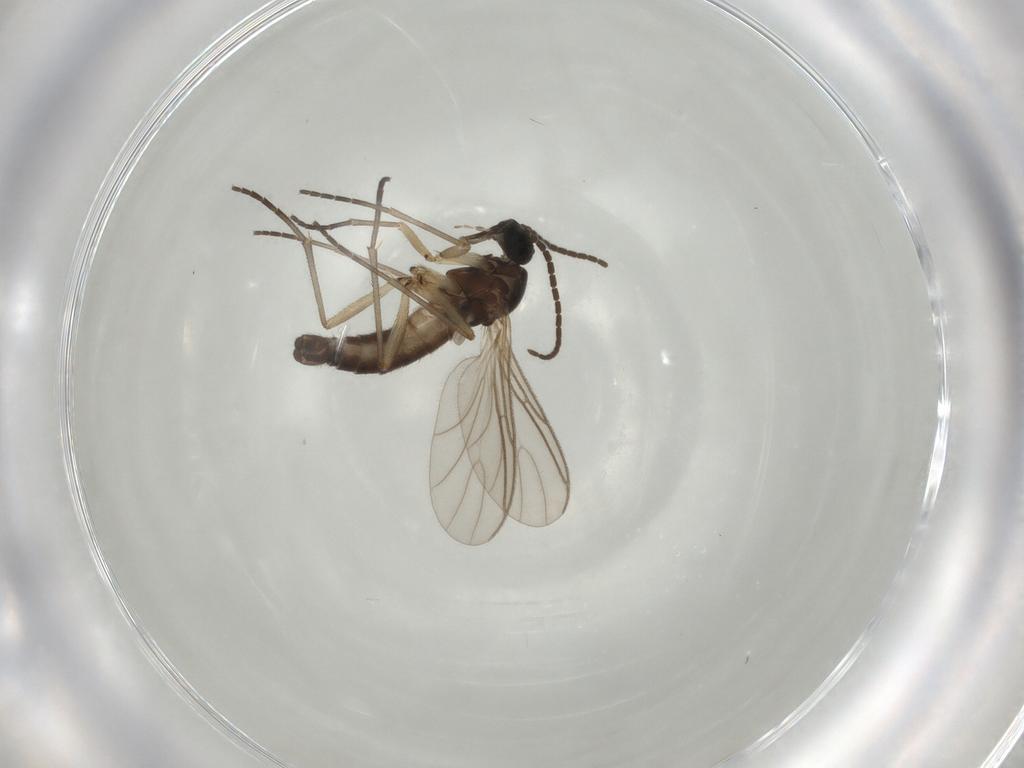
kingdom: Animalia
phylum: Arthropoda
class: Insecta
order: Diptera
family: Sciaridae
